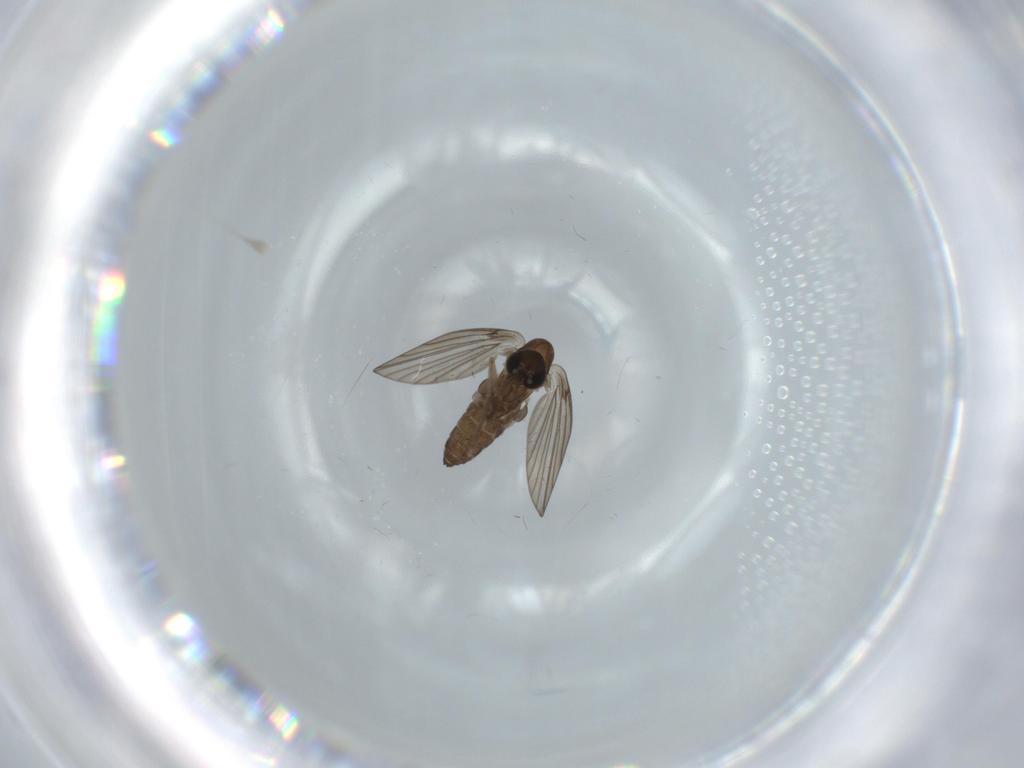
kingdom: Animalia
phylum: Arthropoda
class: Insecta
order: Diptera
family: Psychodidae
